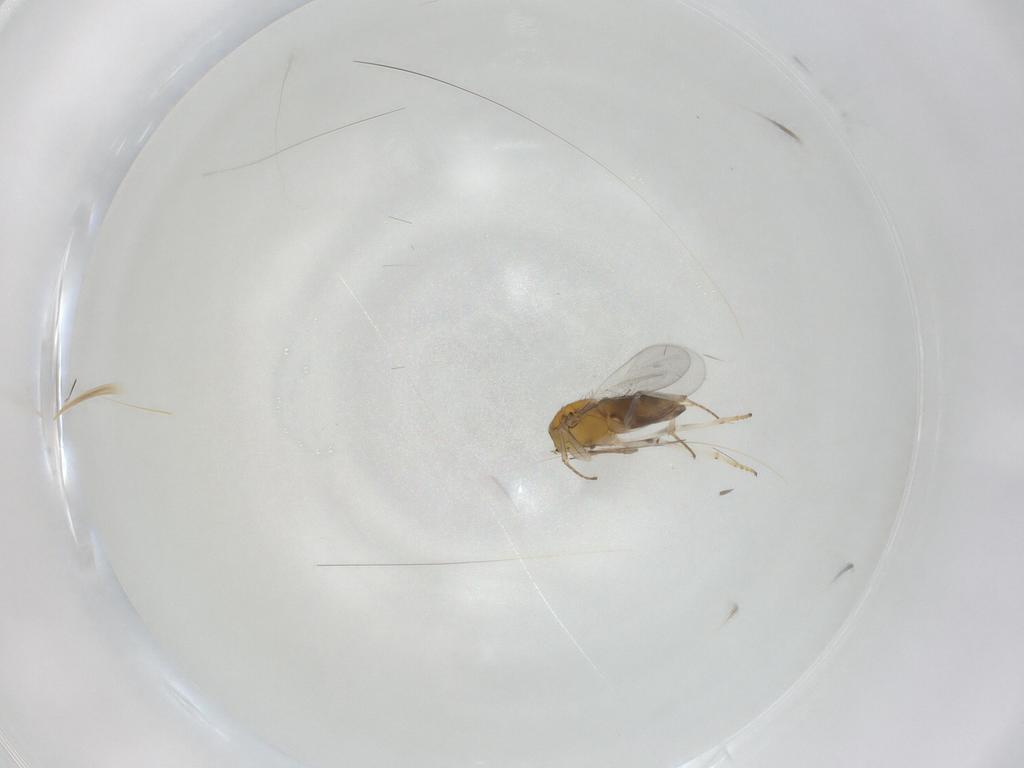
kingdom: Animalia
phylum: Arthropoda
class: Insecta
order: Hymenoptera
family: Encyrtidae
